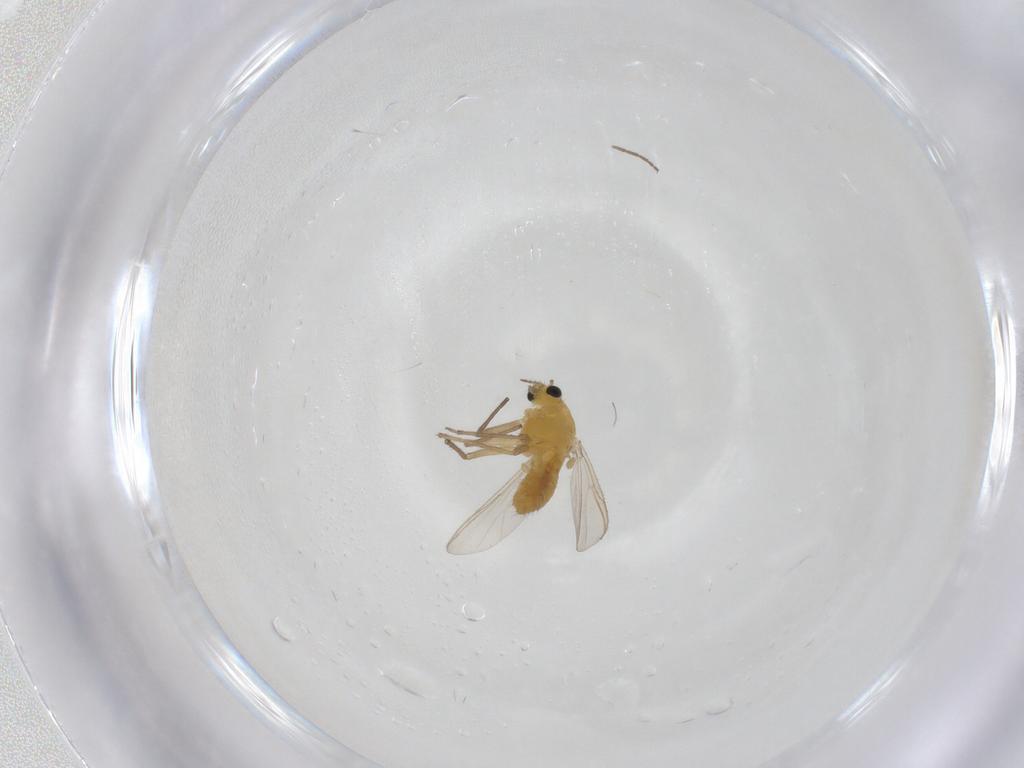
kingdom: Animalia
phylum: Arthropoda
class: Insecta
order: Diptera
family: Chironomidae
